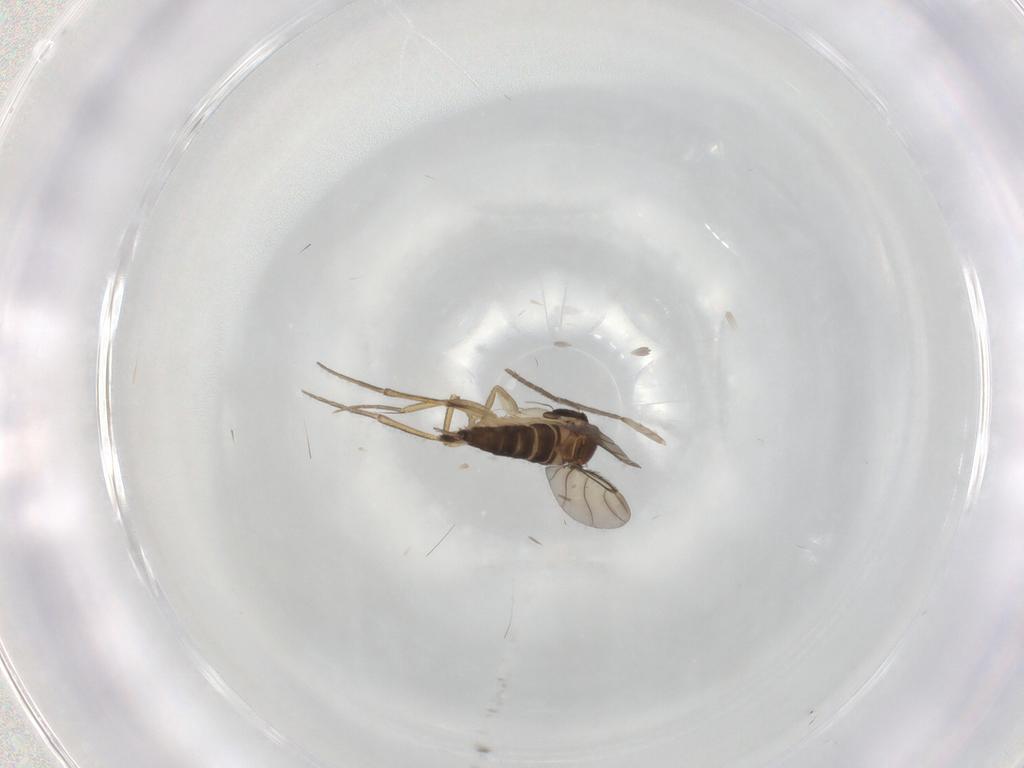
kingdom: Animalia
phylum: Arthropoda
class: Insecta
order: Diptera
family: Phoridae
